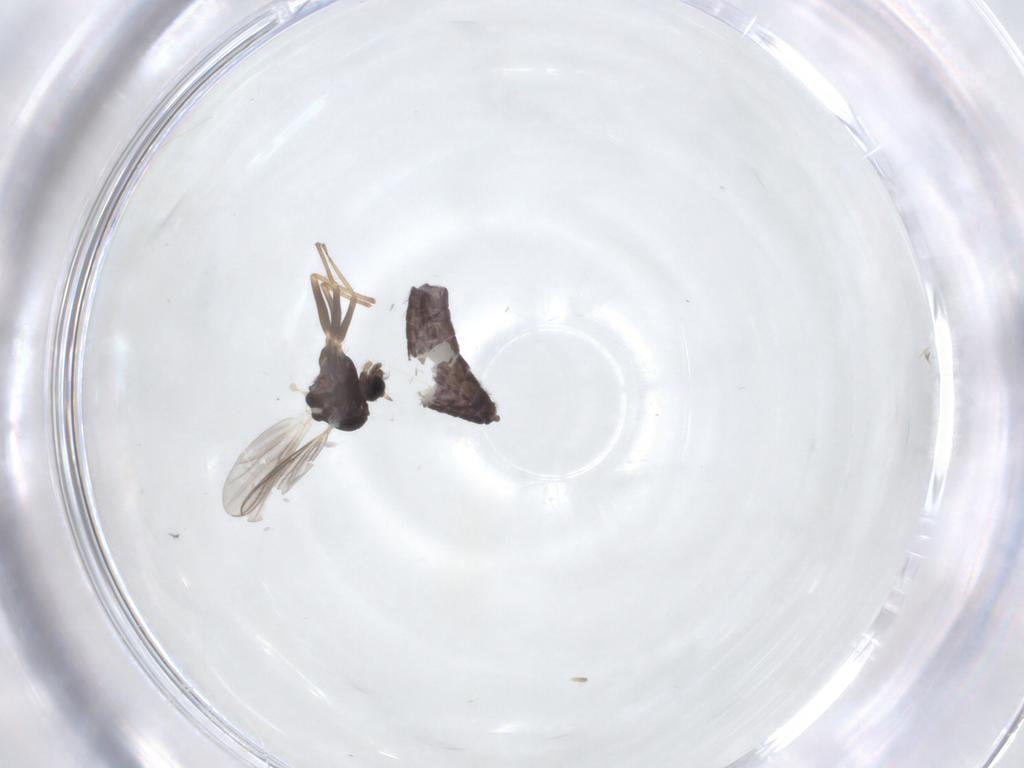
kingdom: Animalia
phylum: Arthropoda
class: Insecta
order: Diptera
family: Chironomidae
